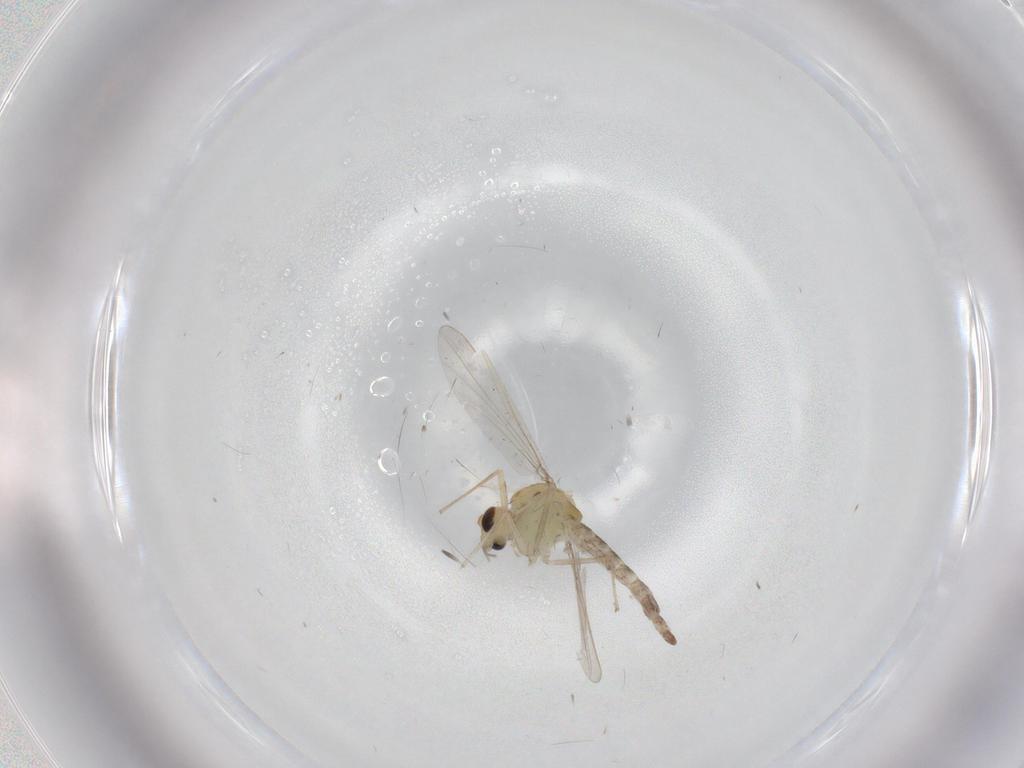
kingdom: Animalia
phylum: Arthropoda
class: Insecta
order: Diptera
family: Chironomidae
